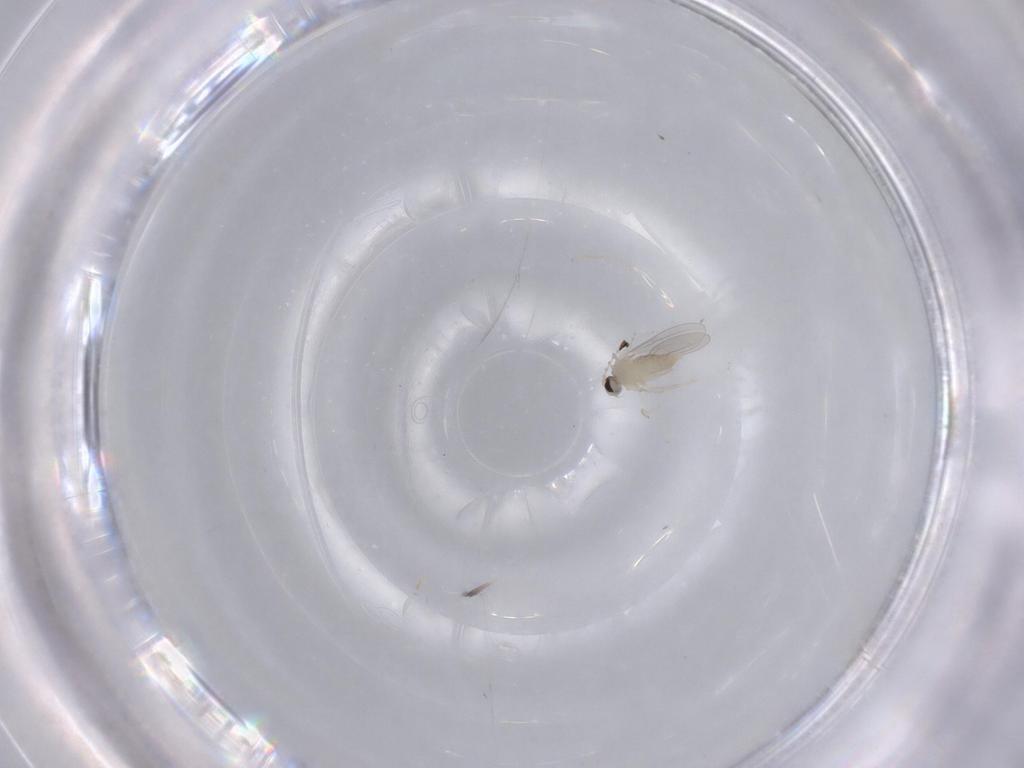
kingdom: Animalia
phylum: Arthropoda
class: Insecta
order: Diptera
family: Cecidomyiidae
